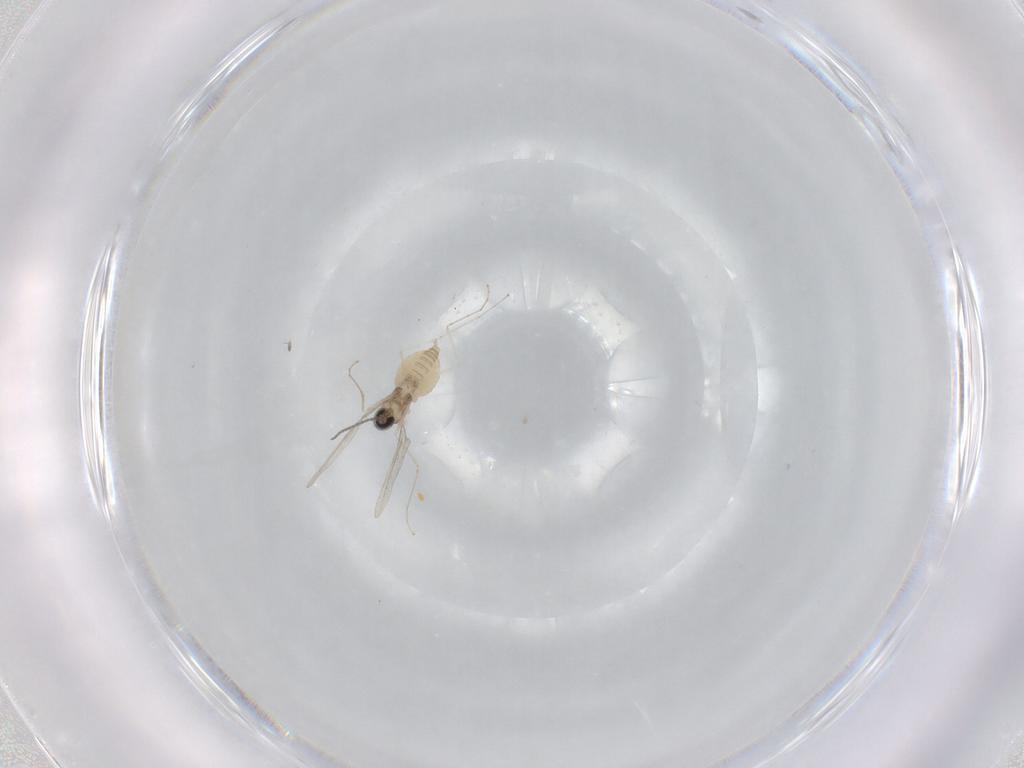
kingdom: Animalia
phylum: Arthropoda
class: Insecta
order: Diptera
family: Cecidomyiidae
